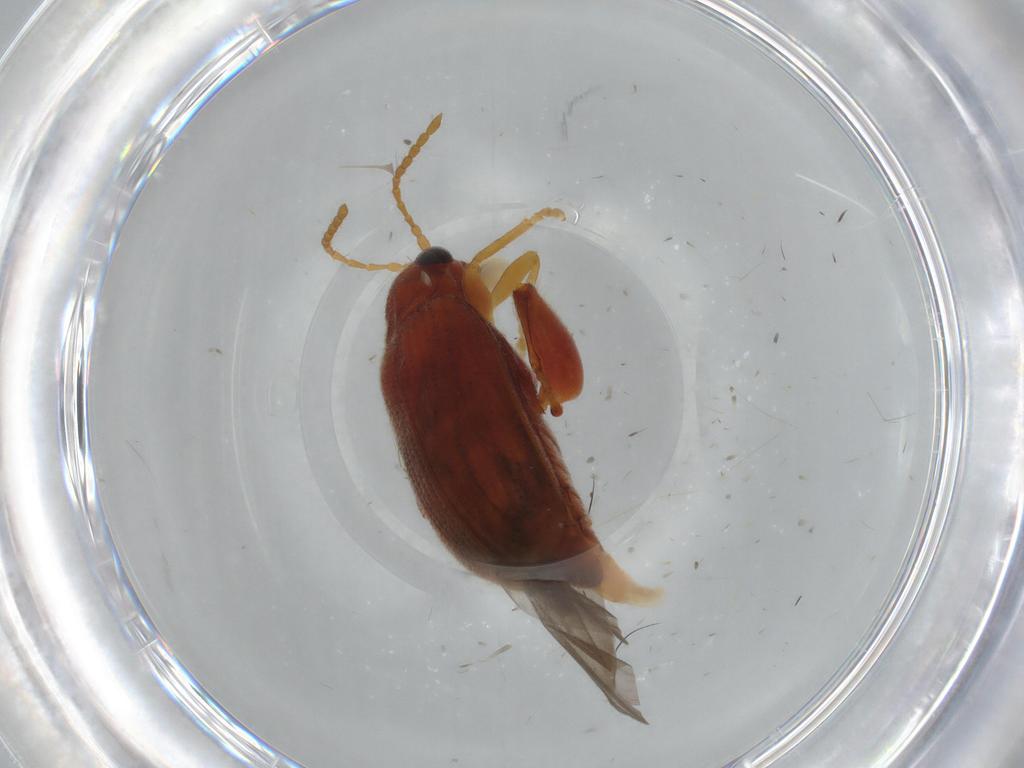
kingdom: Animalia
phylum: Arthropoda
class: Insecta
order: Coleoptera
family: Chrysomelidae
